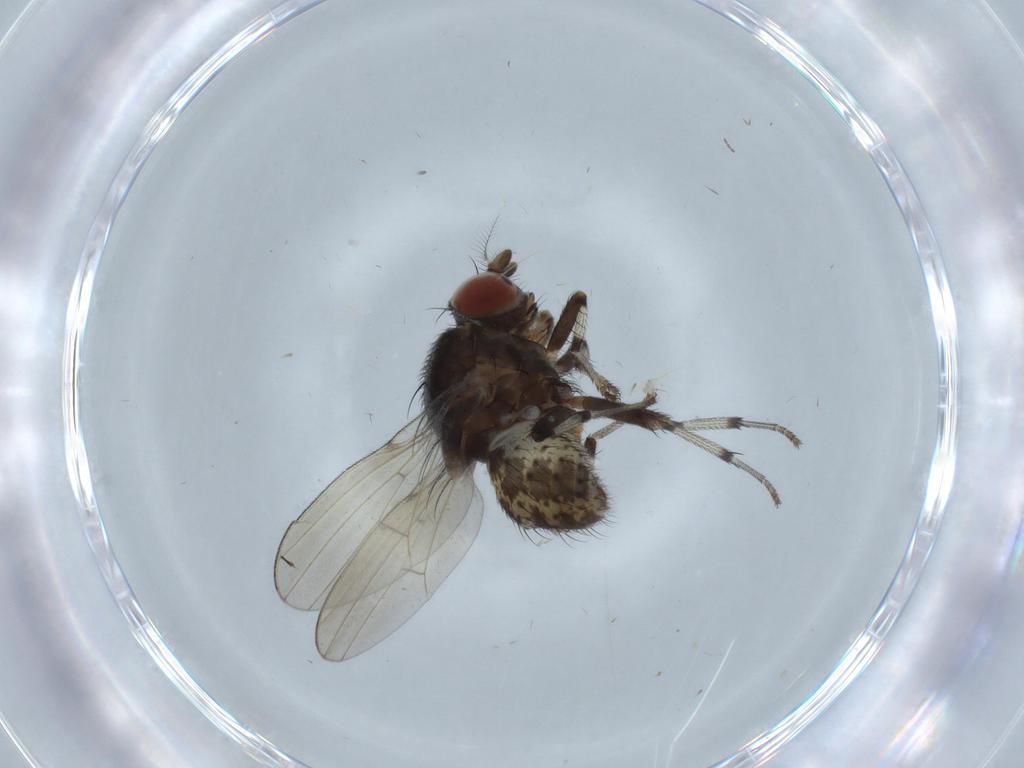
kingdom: Animalia
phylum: Arthropoda
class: Insecta
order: Diptera
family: Sciaridae
